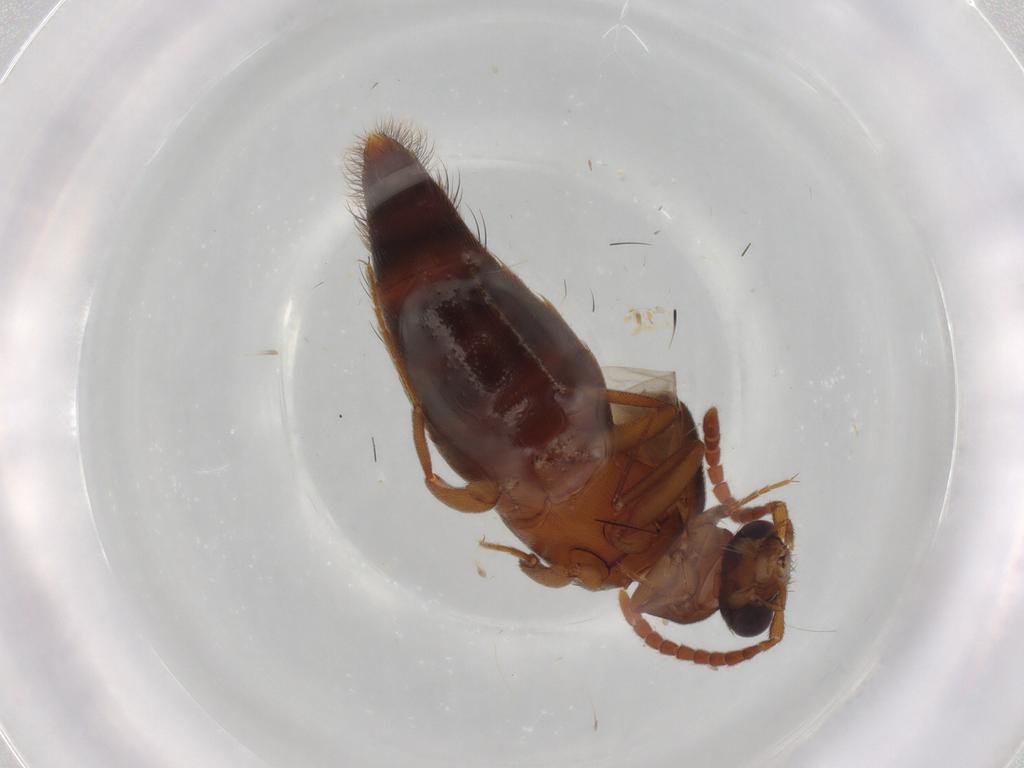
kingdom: Animalia
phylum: Arthropoda
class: Insecta
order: Coleoptera
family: Staphylinidae
